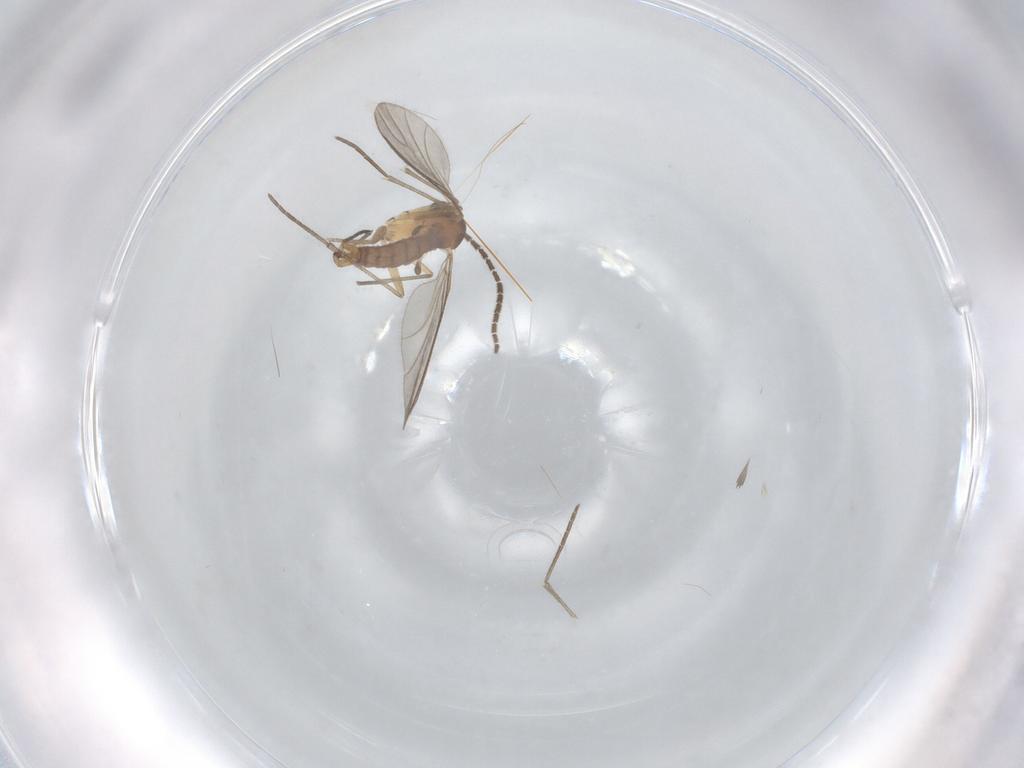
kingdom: Animalia
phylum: Arthropoda
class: Insecta
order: Diptera
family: Sciaridae
